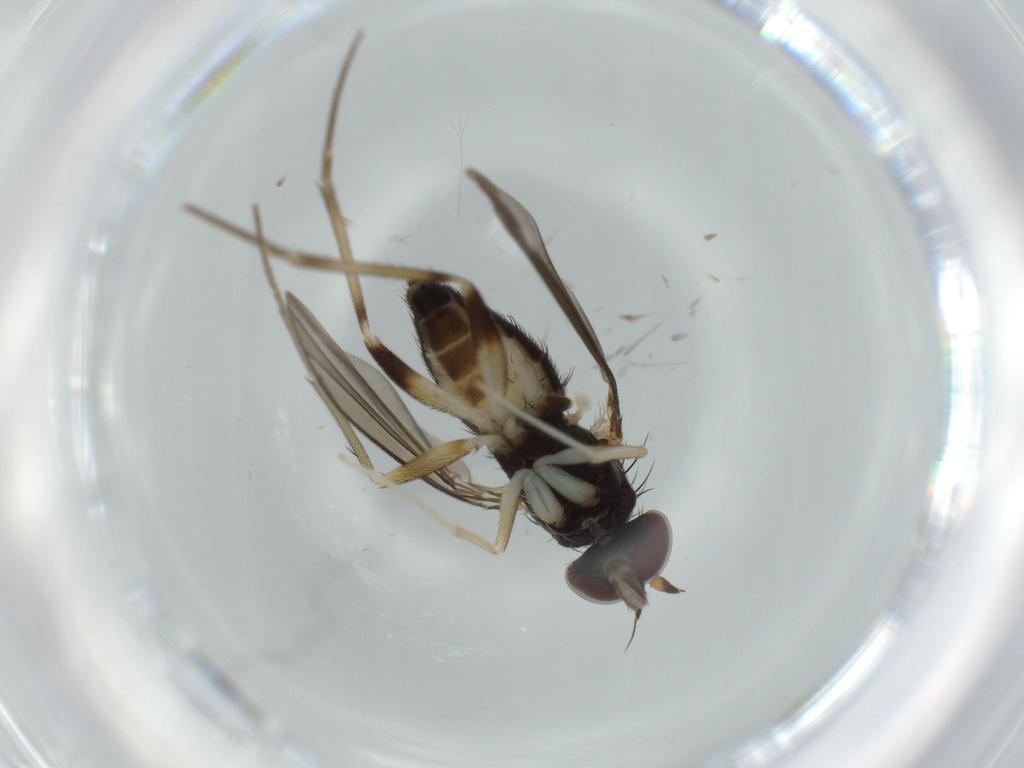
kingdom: Animalia
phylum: Arthropoda
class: Insecta
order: Diptera
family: Dolichopodidae
